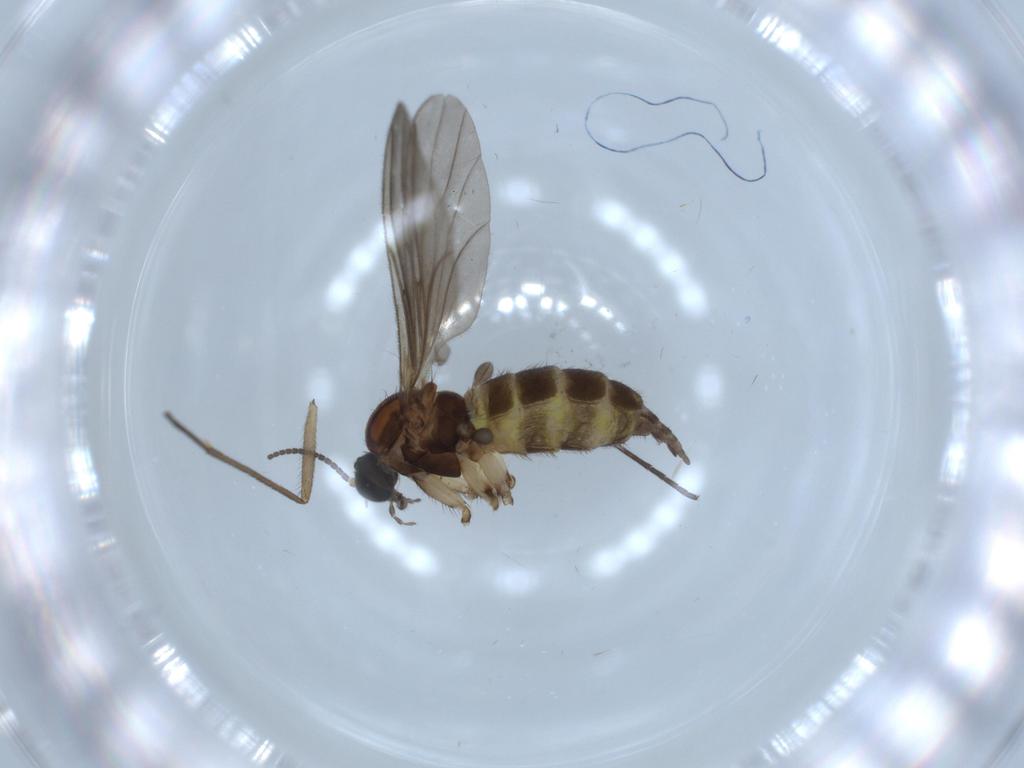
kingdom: Animalia
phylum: Arthropoda
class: Insecta
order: Diptera
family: Sciaridae
